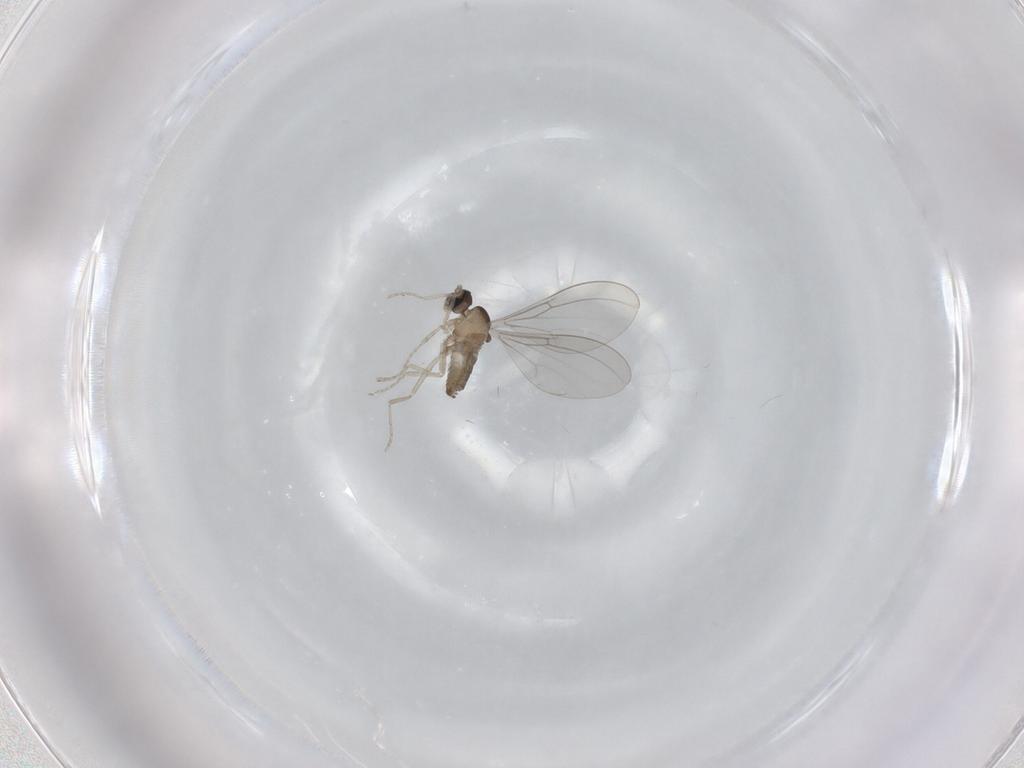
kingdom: Animalia
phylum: Arthropoda
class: Insecta
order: Diptera
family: Cecidomyiidae
